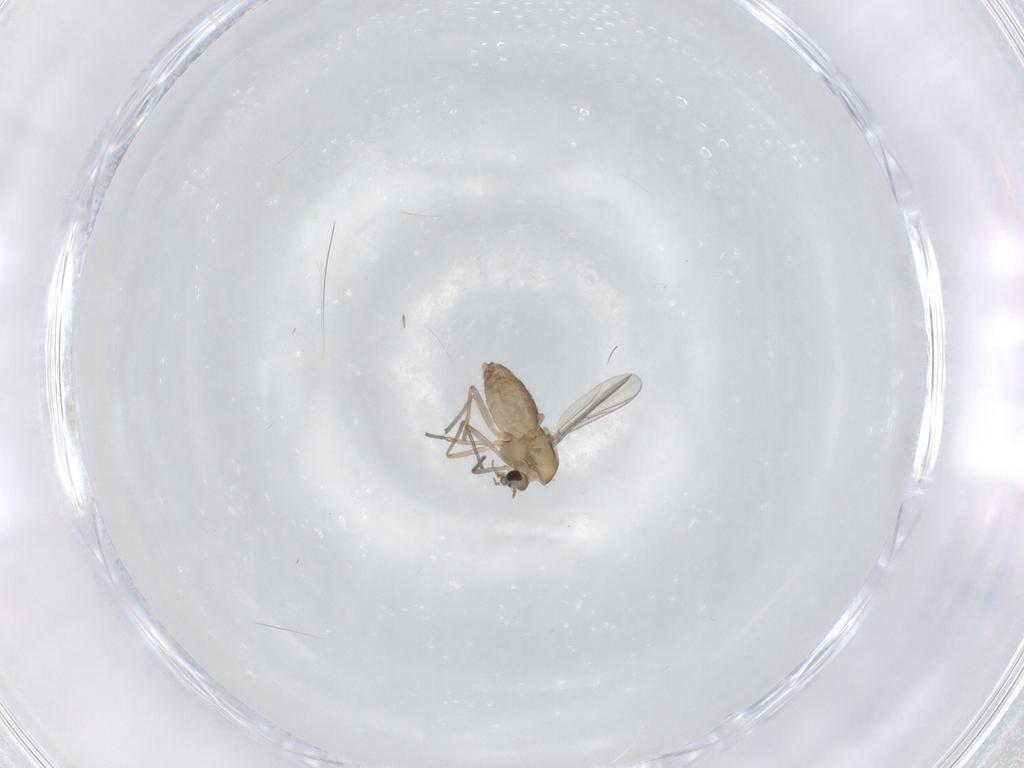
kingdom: Animalia
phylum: Arthropoda
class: Insecta
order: Diptera
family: Chironomidae
